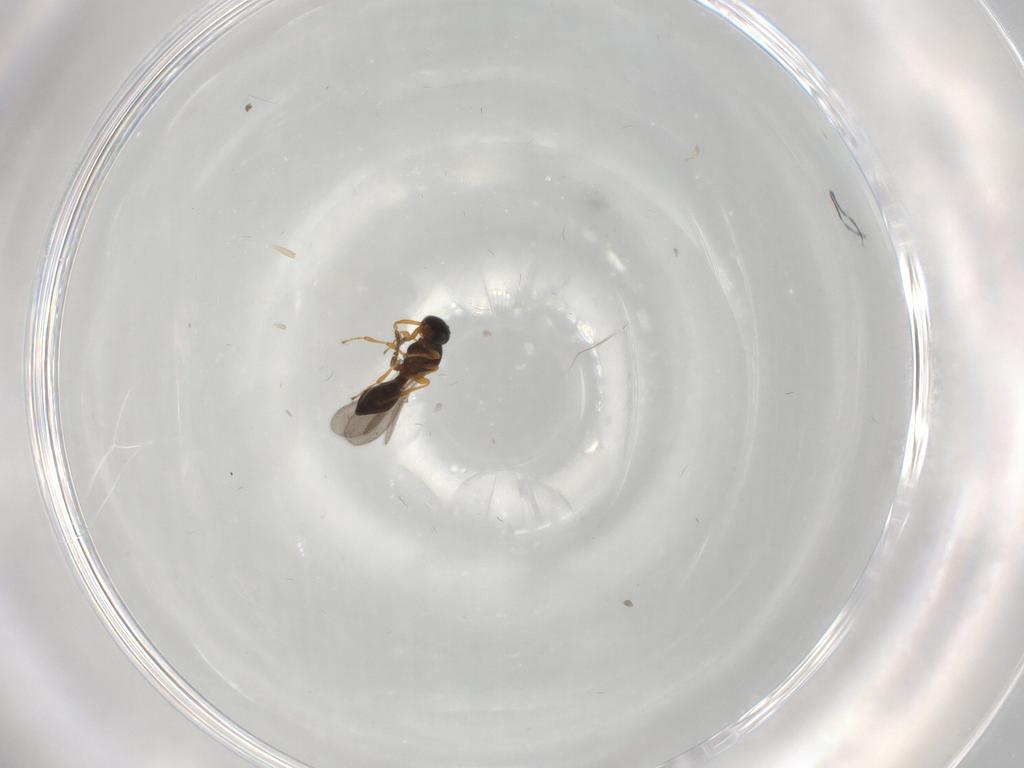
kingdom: Animalia
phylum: Arthropoda
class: Insecta
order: Hymenoptera
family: Platygastridae
